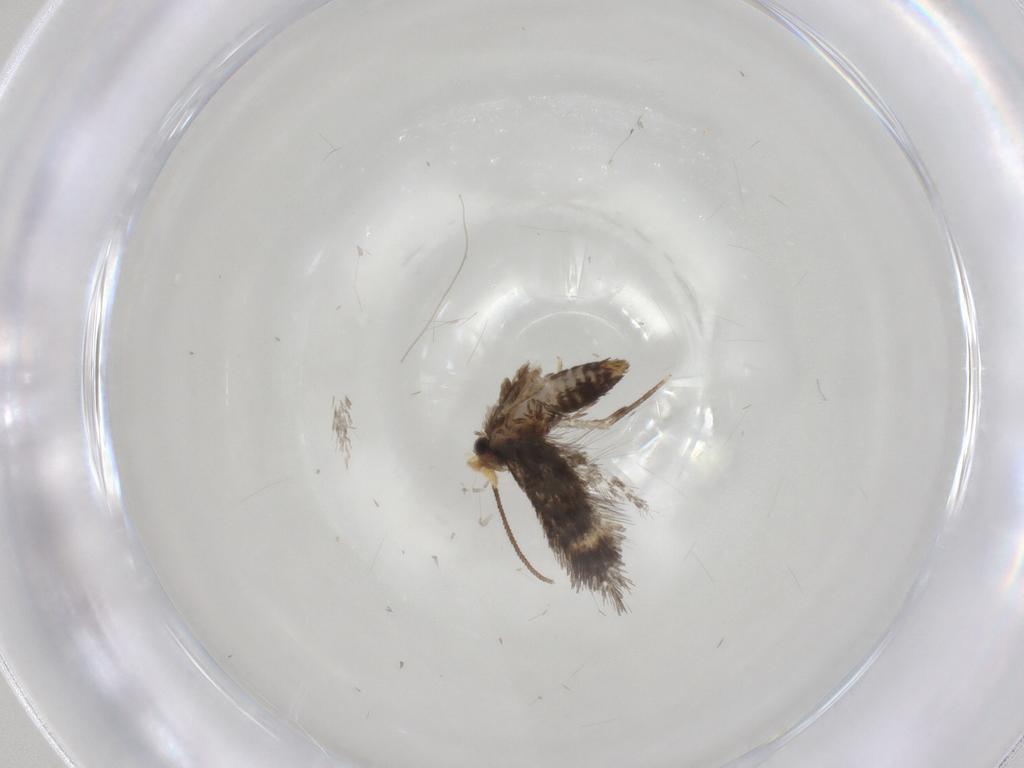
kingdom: Animalia
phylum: Arthropoda
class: Insecta
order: Lepidoptera
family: Nepticulidae
